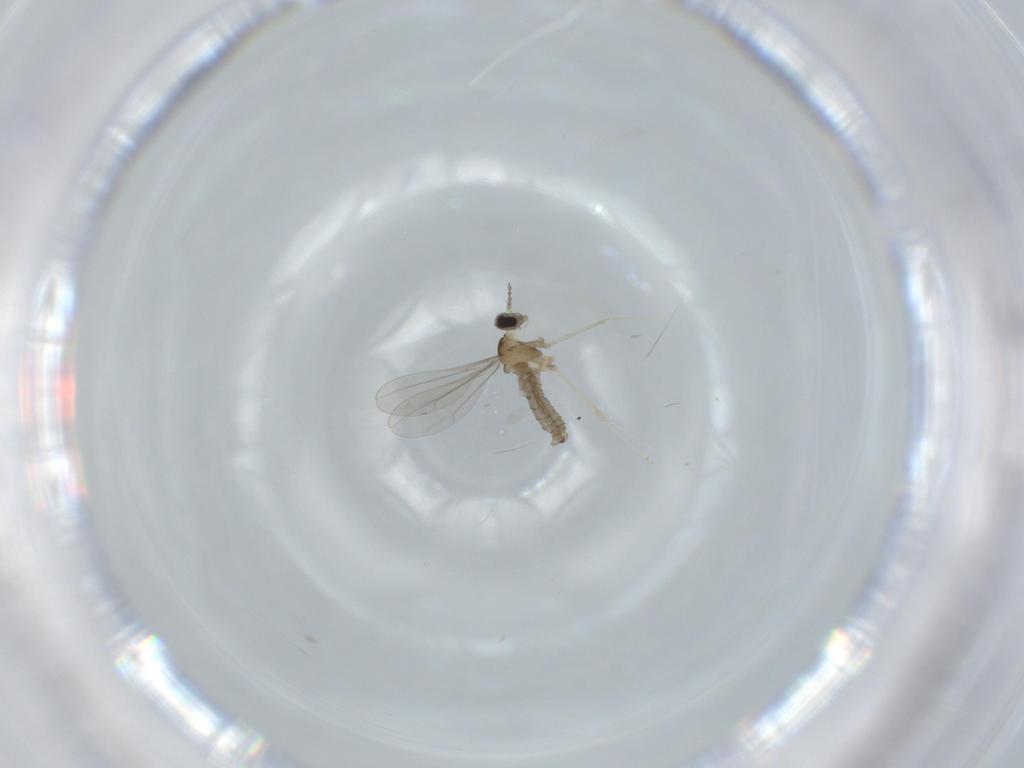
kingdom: Animalia
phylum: Arthropoda
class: Insecta
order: Diptera
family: Cecidomyiidae
